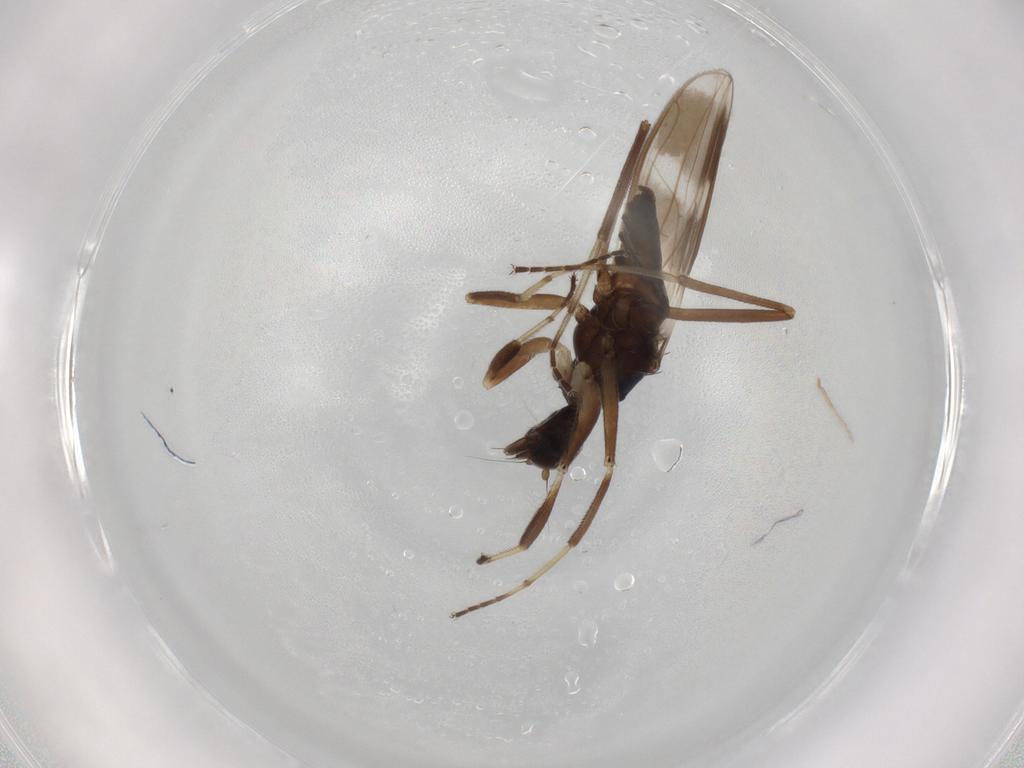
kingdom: Animalia
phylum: Arthropoda
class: Insecta
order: Diptera
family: Hybotidae
